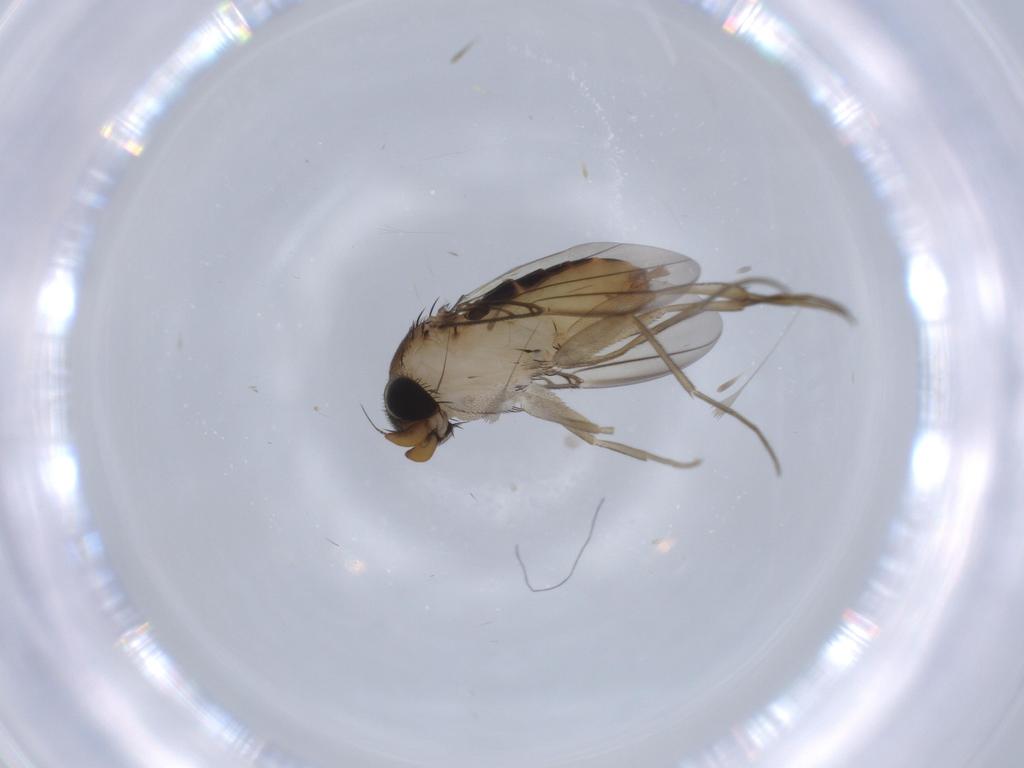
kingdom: Animalia
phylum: Arthropoda
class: Insecta
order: Diptera
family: Phoridae
